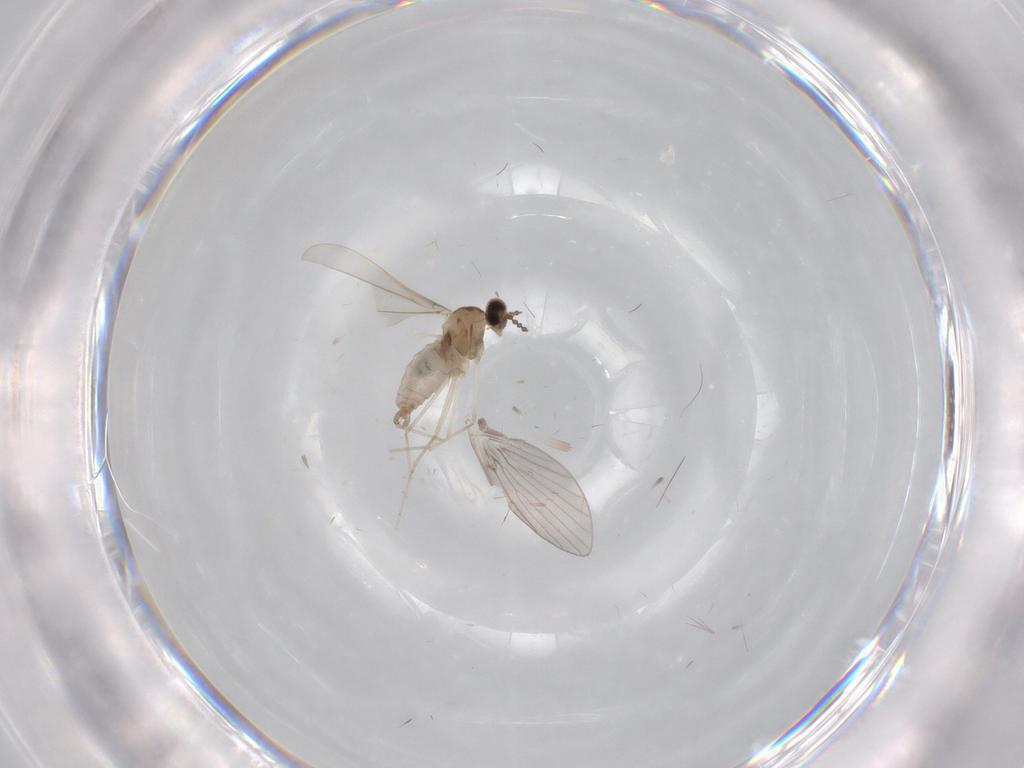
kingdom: Animalia
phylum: Arthropoda
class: Insecta
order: Diptera
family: Cecidomyiidae
